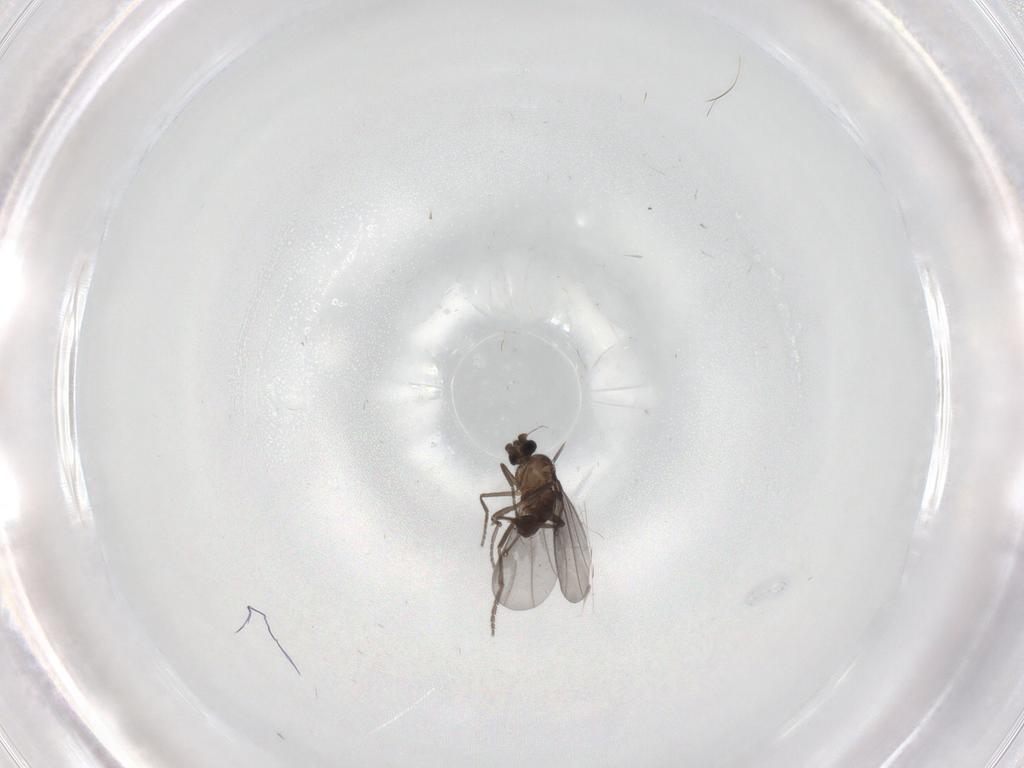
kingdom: Animalia
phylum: Arthropoda
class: Insecta
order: Diptera
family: Phoridae
